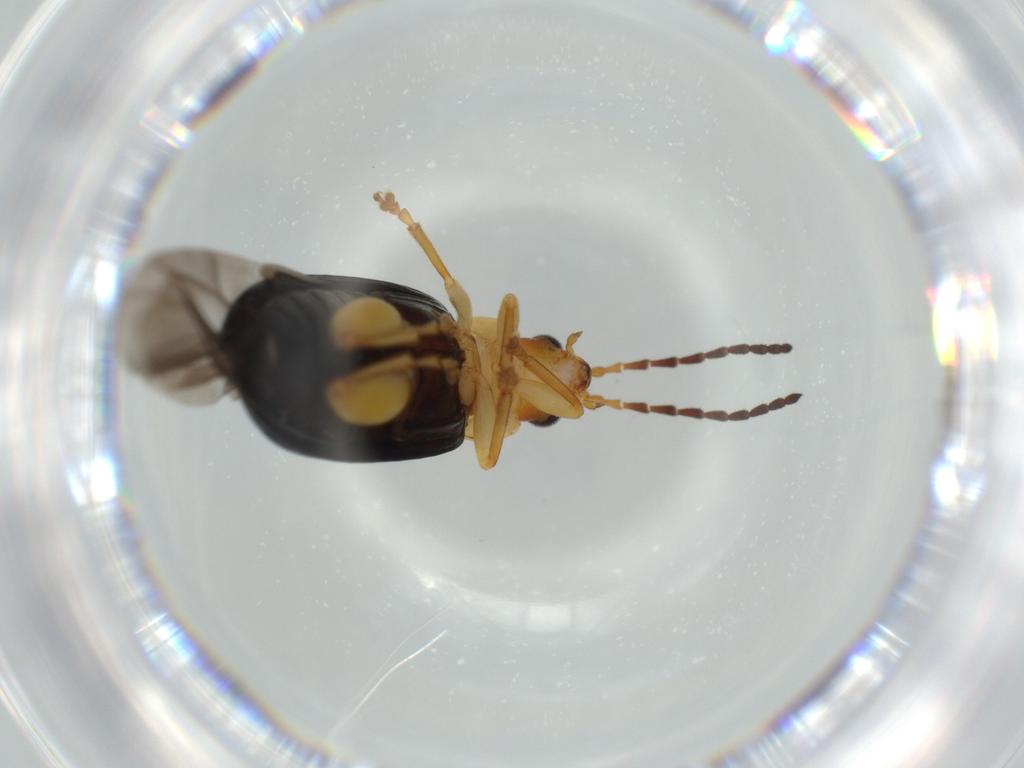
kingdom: Animalia
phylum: Arthropoda
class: Insecta
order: Coleoptera
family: Chrysomelidae
